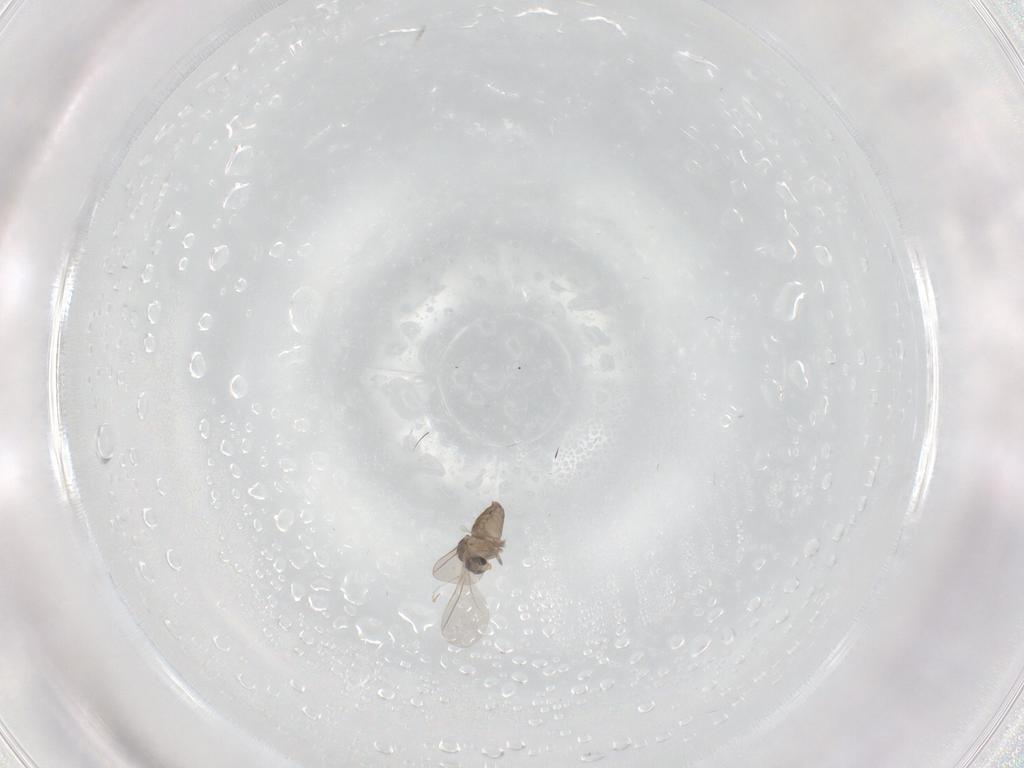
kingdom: Animalia
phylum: Arthropoda
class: Insecta
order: Diptera
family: Cecidomyiidae
